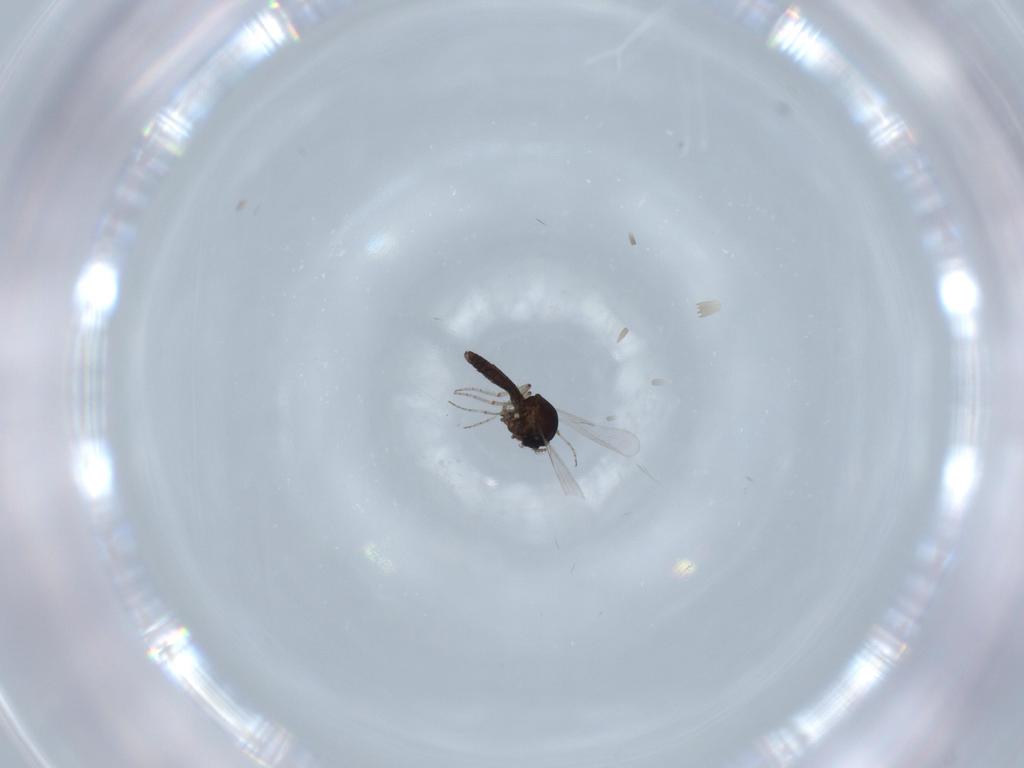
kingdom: Animalia
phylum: Arthropoda
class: Insecta
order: Diptera
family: Ceratopogonidae
